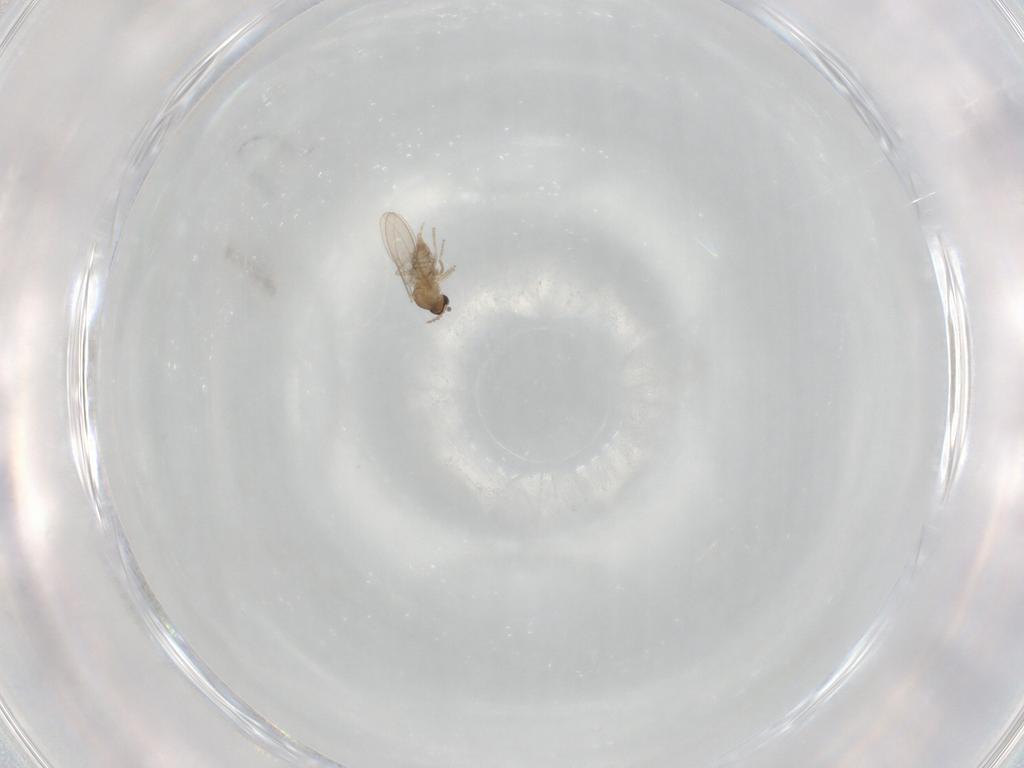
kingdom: Animalia
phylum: Arthropoda
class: Insecta
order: Diptera
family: Cecidomyiidae
